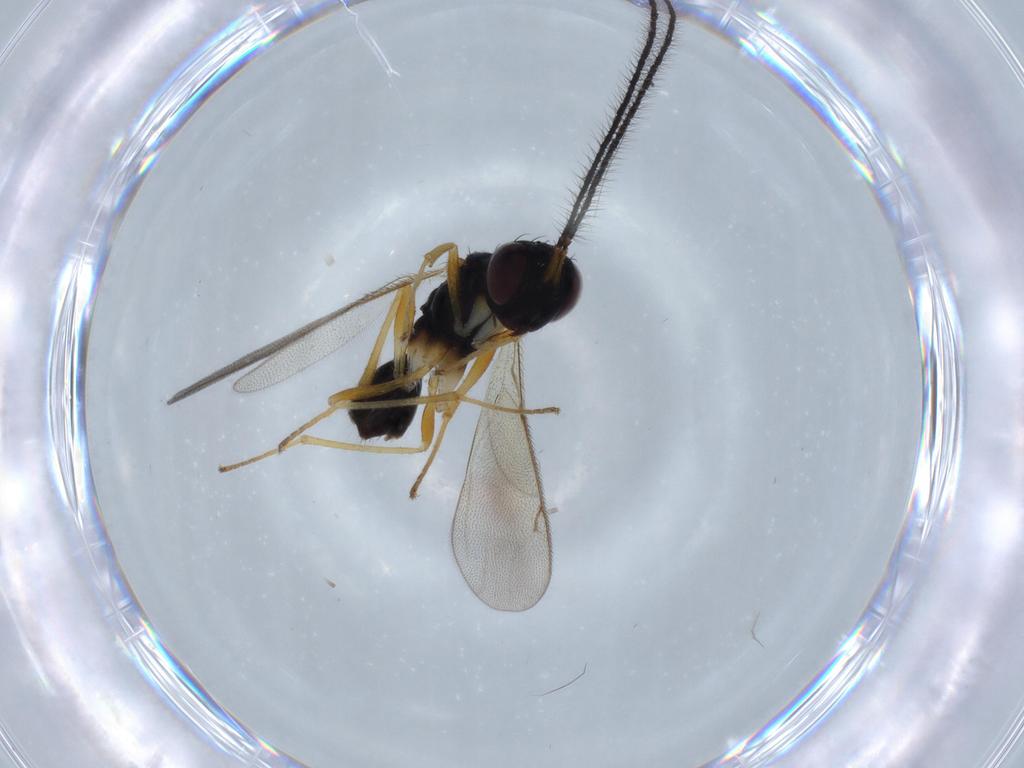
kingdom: Animalia
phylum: Arthropoda
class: Insecta
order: Diptera
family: Chironomidae
